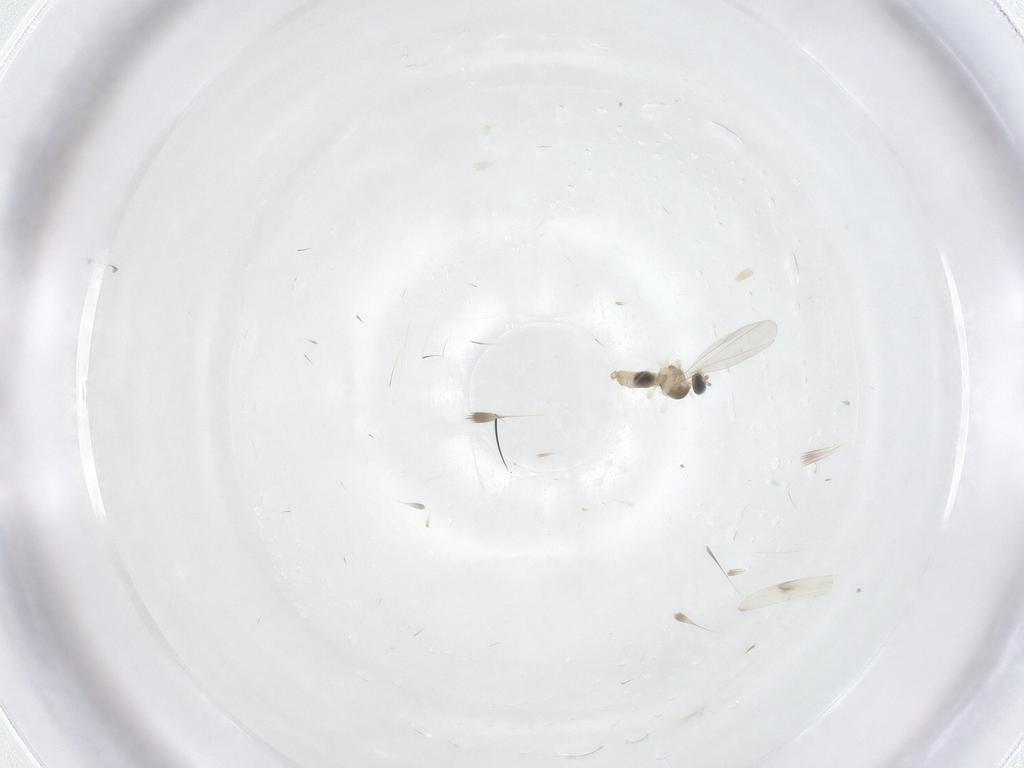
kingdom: Animalia
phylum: Arthropoda
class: Insecta
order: Diptera
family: Cecidomyiidae
